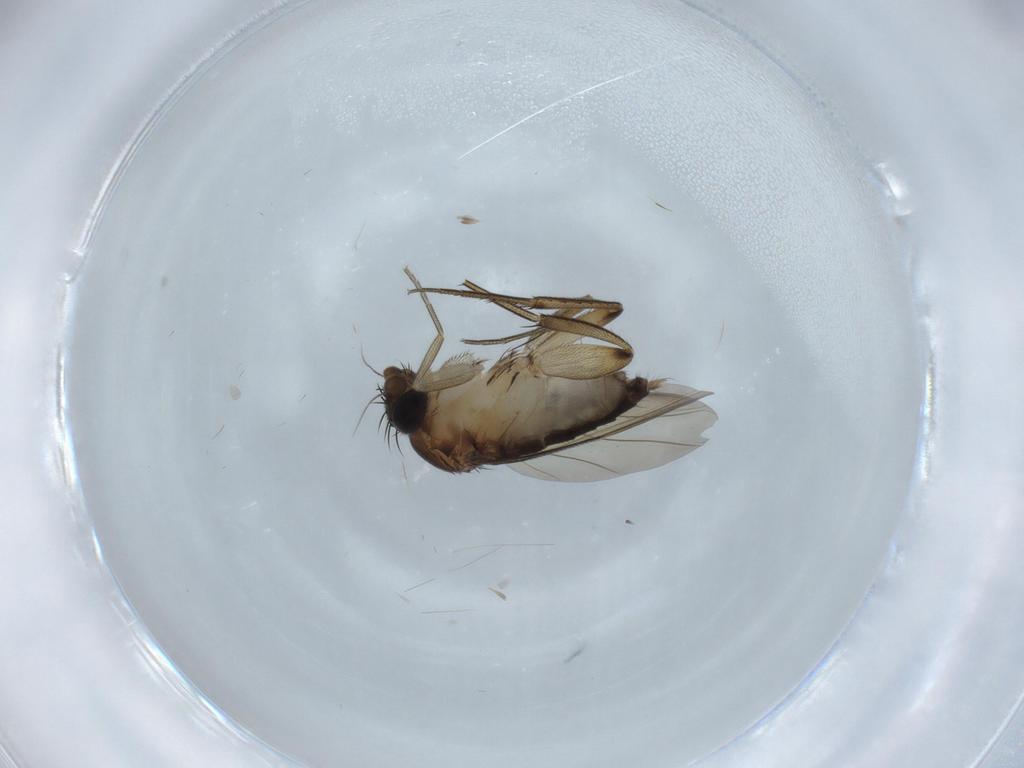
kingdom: Animalia
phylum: Arthropoda
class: Insecta
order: Diptera
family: Phoridae
